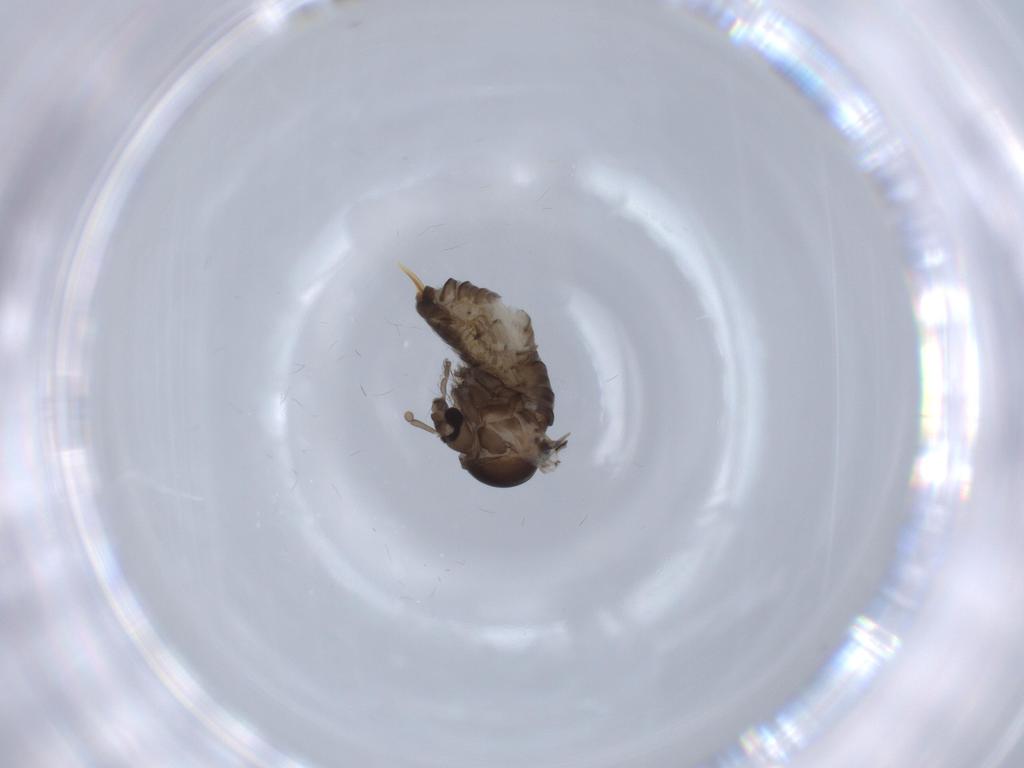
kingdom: Animalia
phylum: Arthropoda
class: Insecta
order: Diptera
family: Psychodidae
